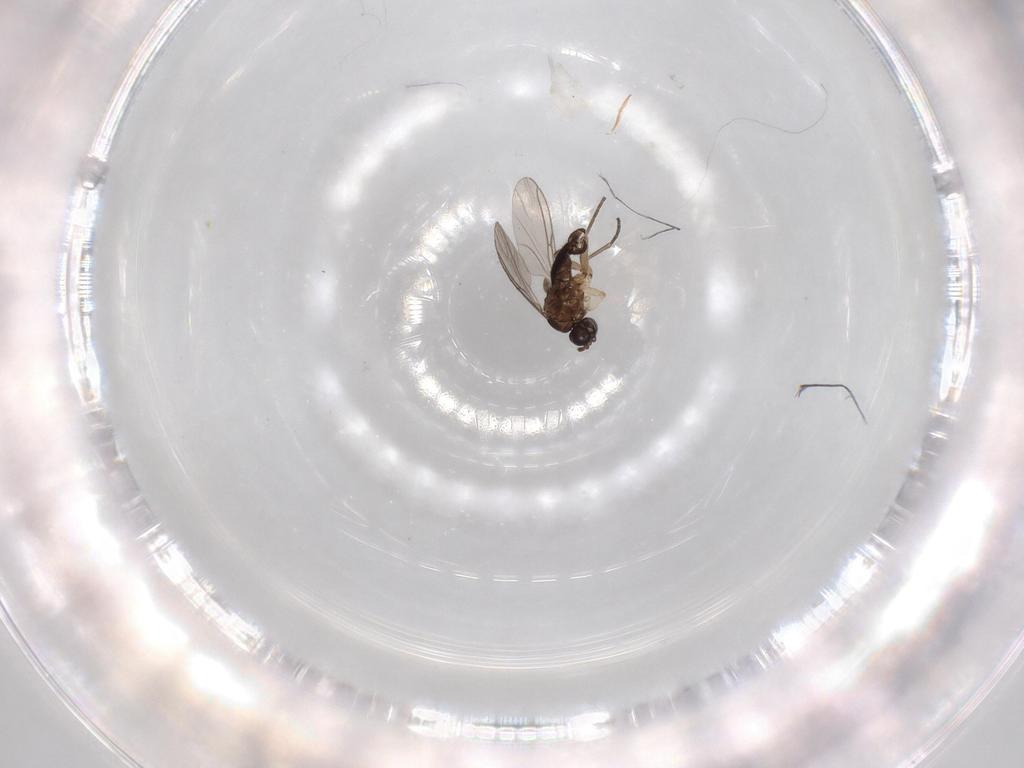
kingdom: Animalia
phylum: Arthropoda
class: Insecta
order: Diptera
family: Sciaridae
